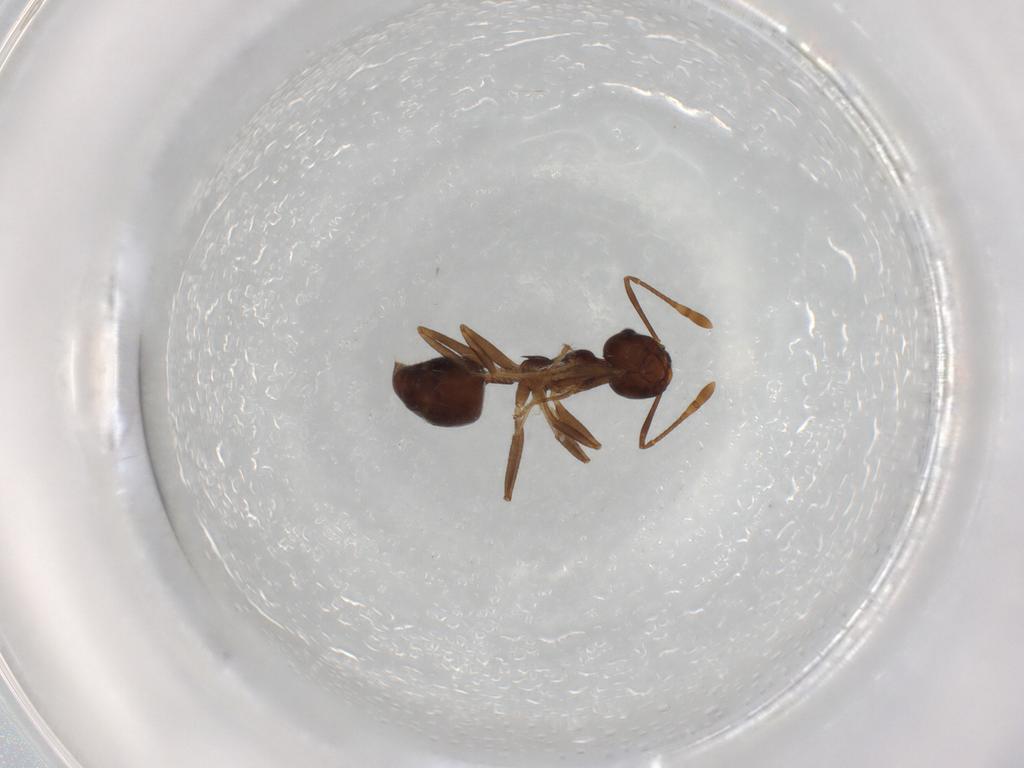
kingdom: Animalia
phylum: Arthropoda
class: Insecta
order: Hymenoptera
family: Formicidae
